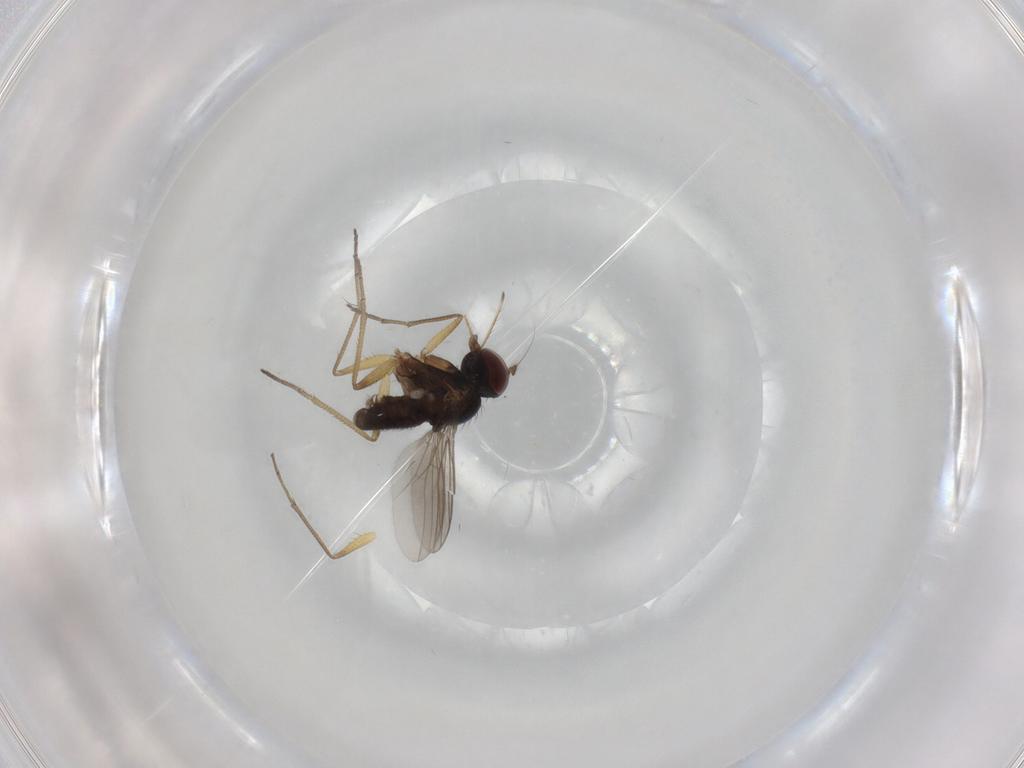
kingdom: Animalia
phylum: Arthropoda
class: Insecta
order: Diptera
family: Dolichopodidae
